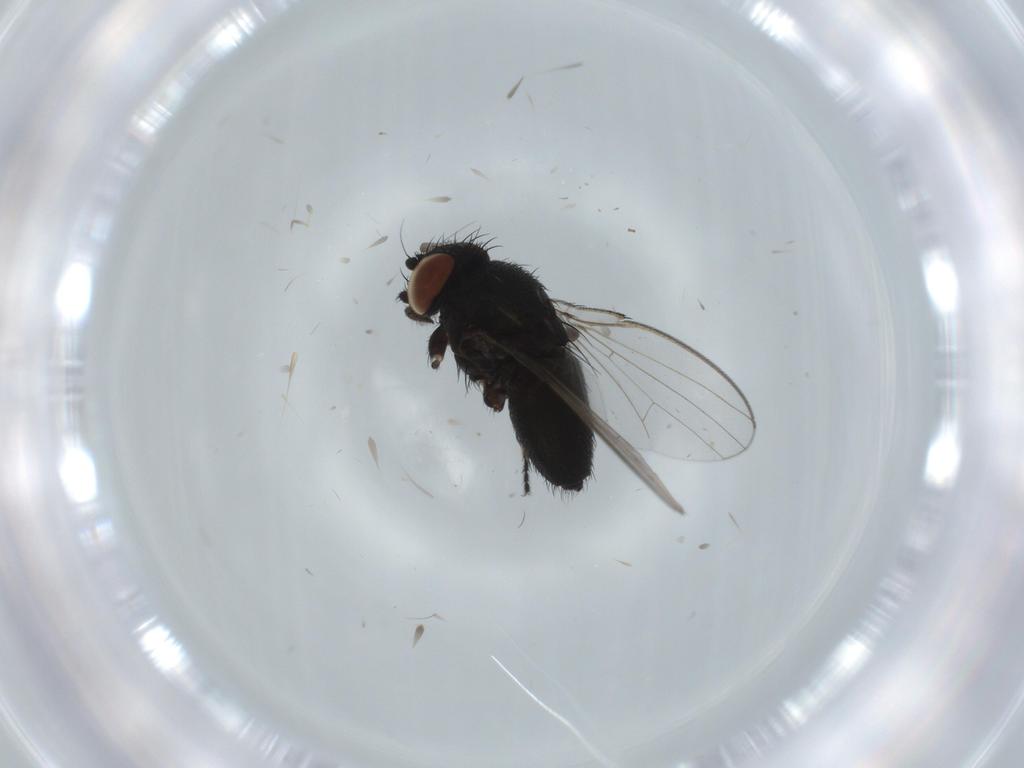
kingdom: Animalia
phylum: Arthropoda
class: Insecta
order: Diptera
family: Milichiidae
